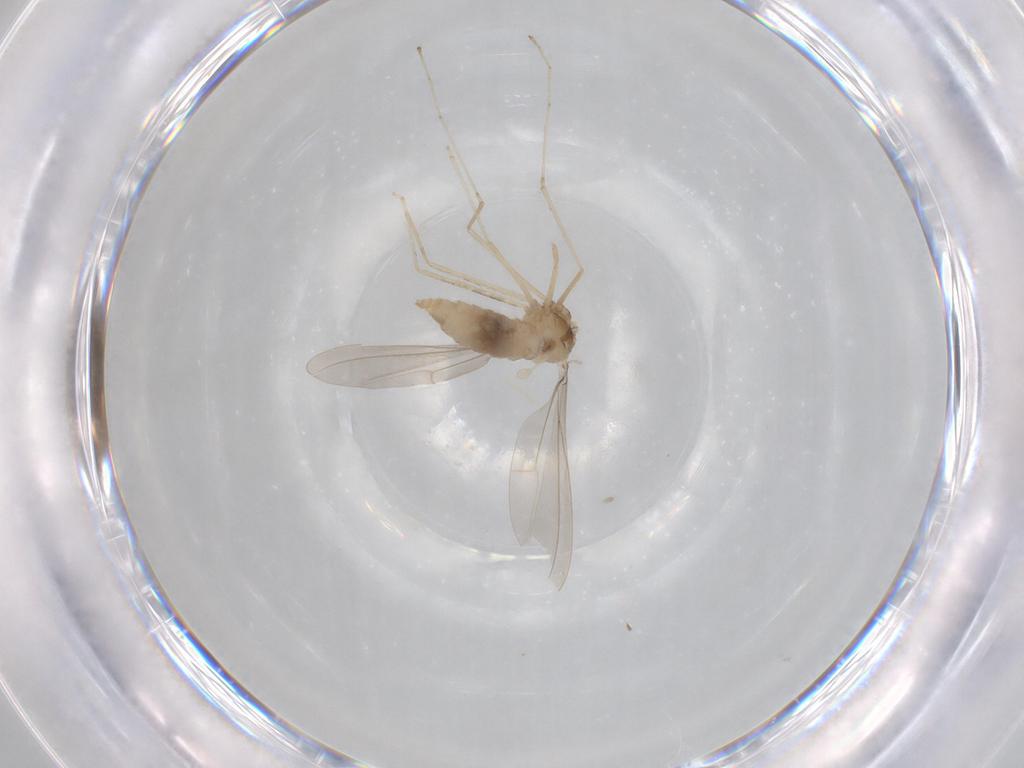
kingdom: Animalia
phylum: Arthropoda
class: Insecta
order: Diptera
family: Cecidomyiidae
